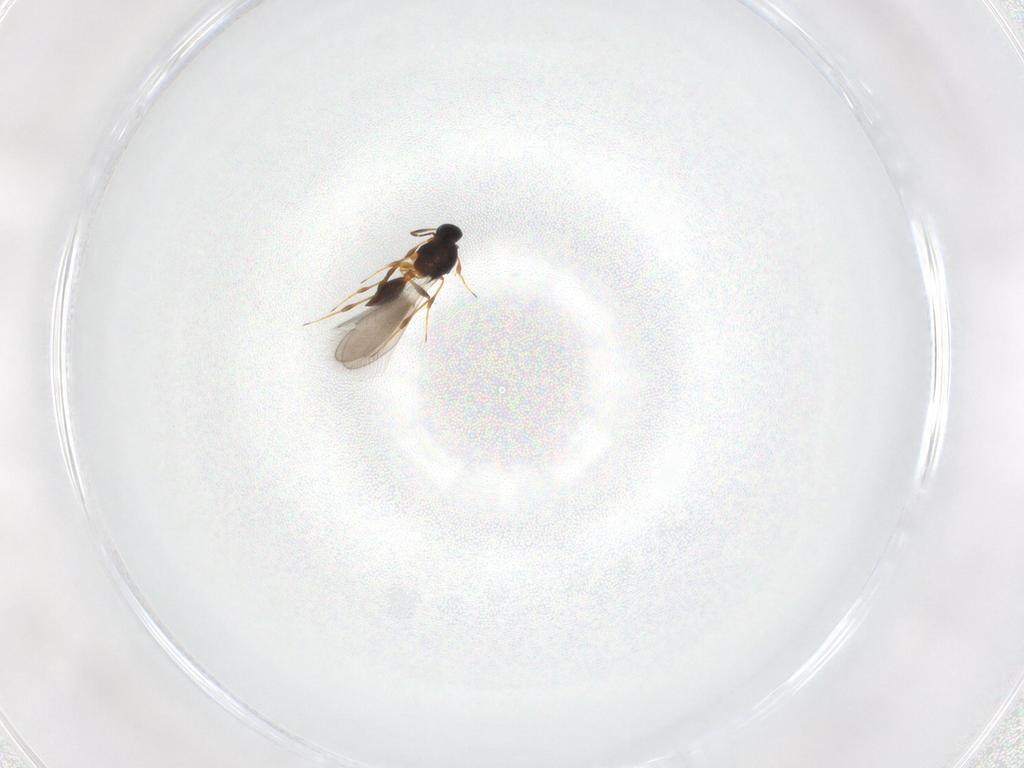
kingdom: Animalia
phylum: Arthropoda
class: Insecta
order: Hymenoptera
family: Platygastridae
